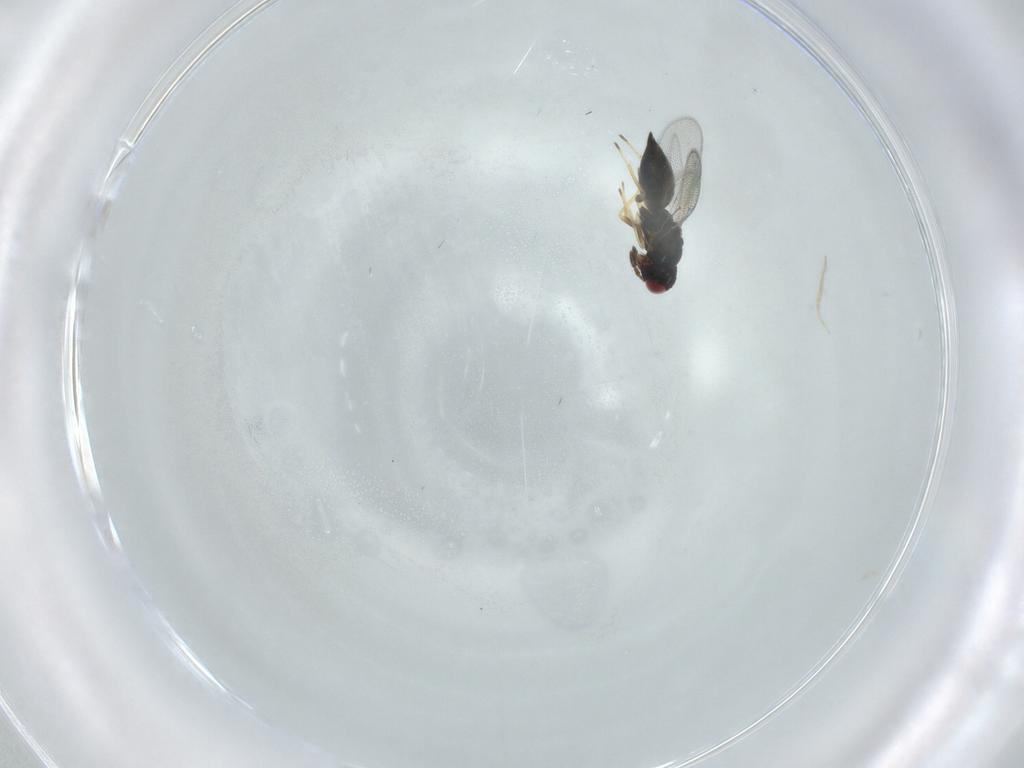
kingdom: Animalia
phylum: Arthropoda
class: Insecta
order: Hymenoptera
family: Eulophidae
